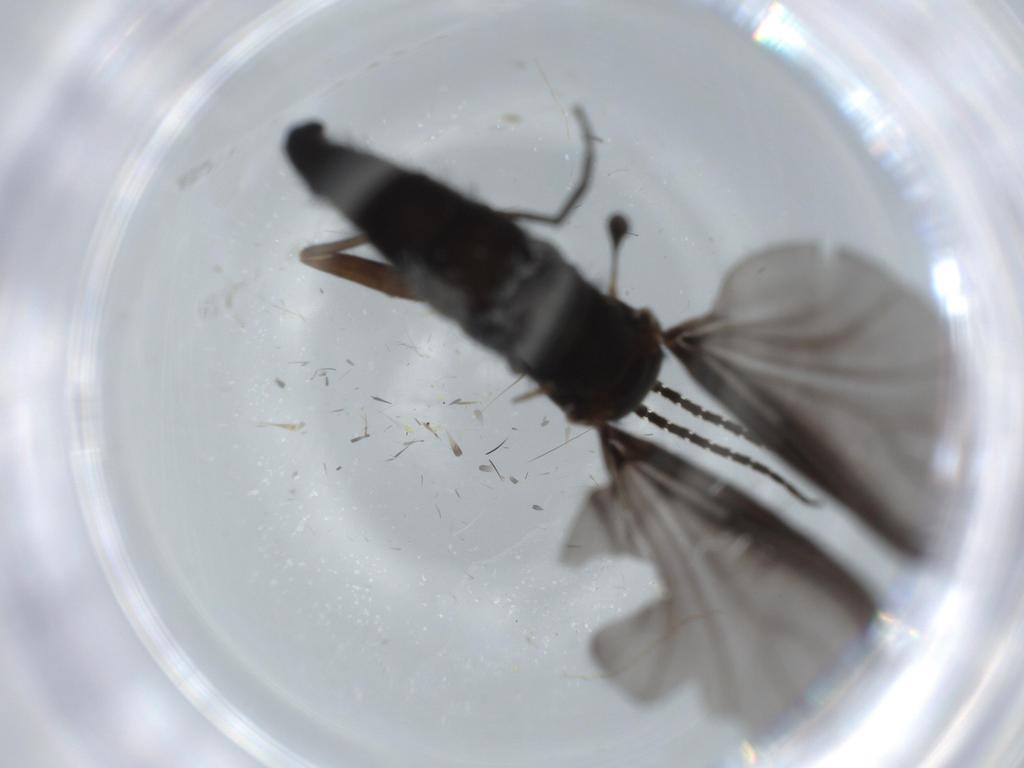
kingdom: Animalia
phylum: Arthropoda
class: Insecta
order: Diptera
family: Sciaridae
